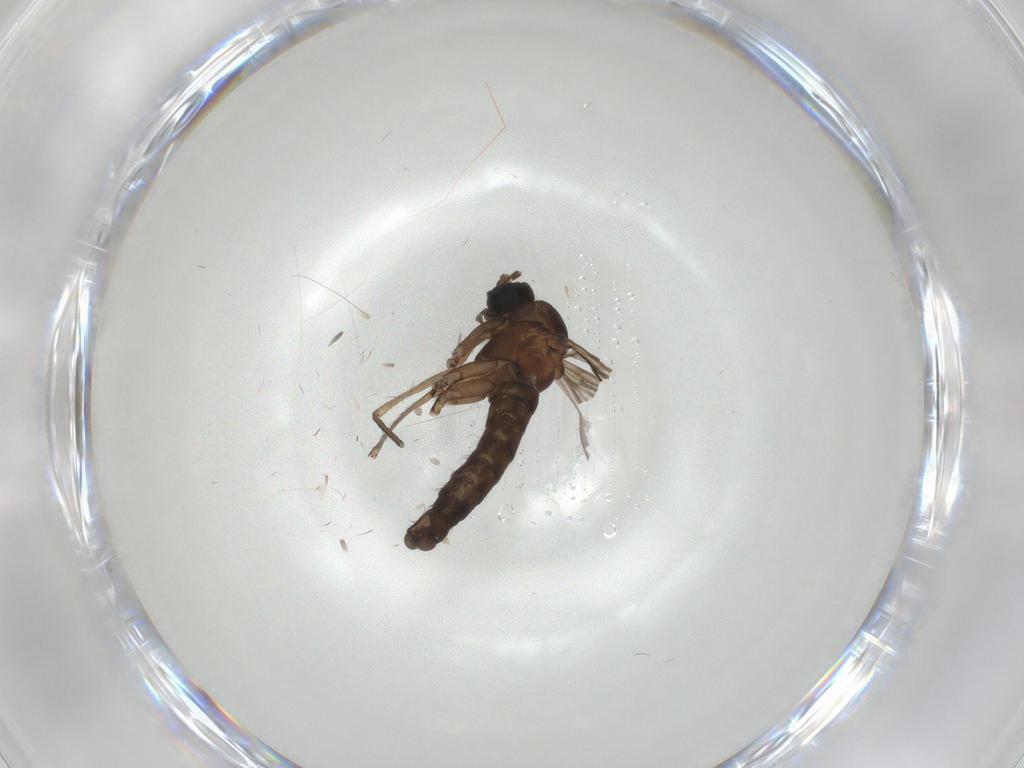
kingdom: Animalia
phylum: Arthropoda
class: Insecta
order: Diptera
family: Sciaridae
